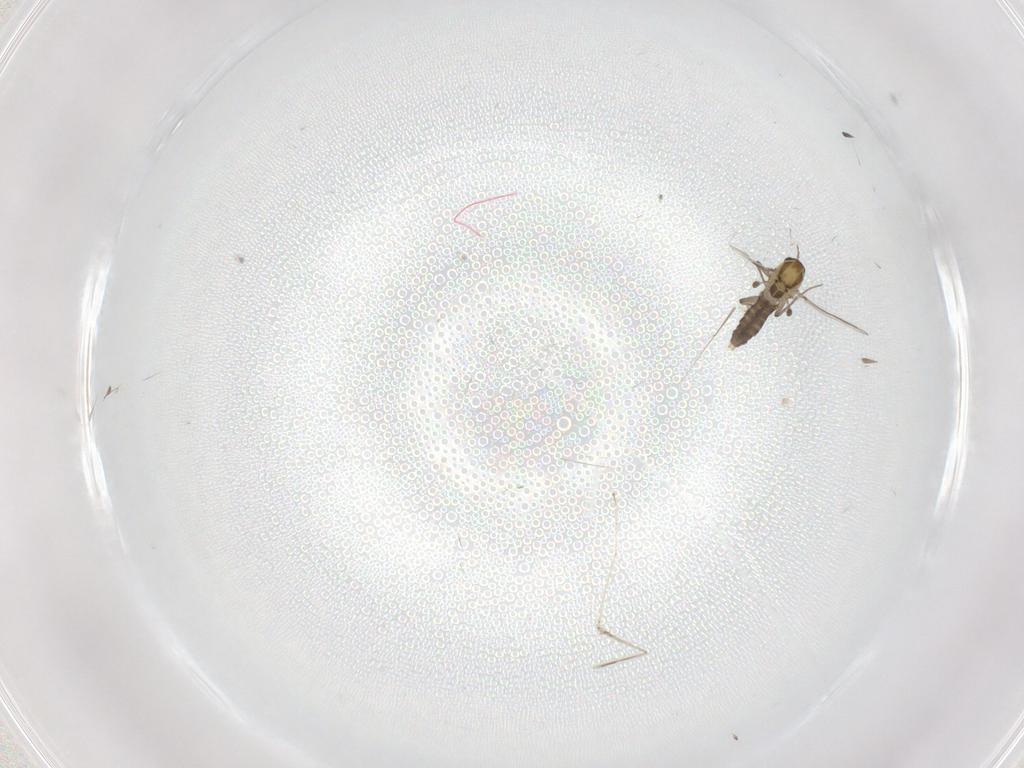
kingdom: Animalia
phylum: Arthropoda
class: Insecta
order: Diptera
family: Chironomidae
